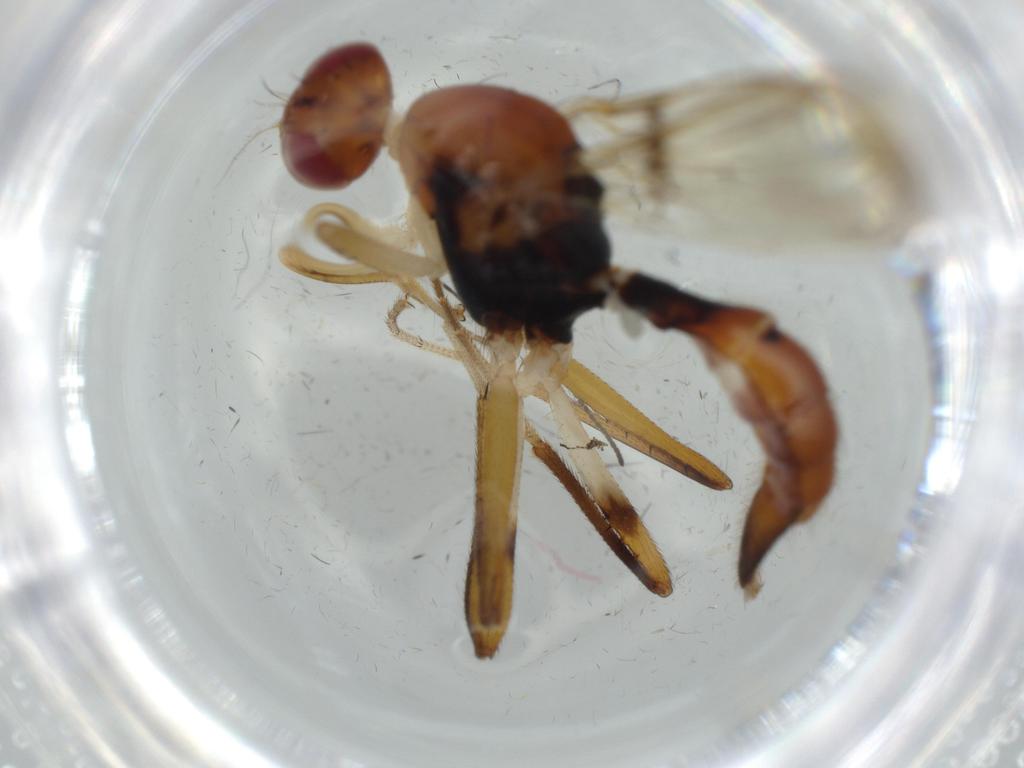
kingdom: Animalia
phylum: Arthropoda
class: Insecta
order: Diptera
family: Richardiidae
